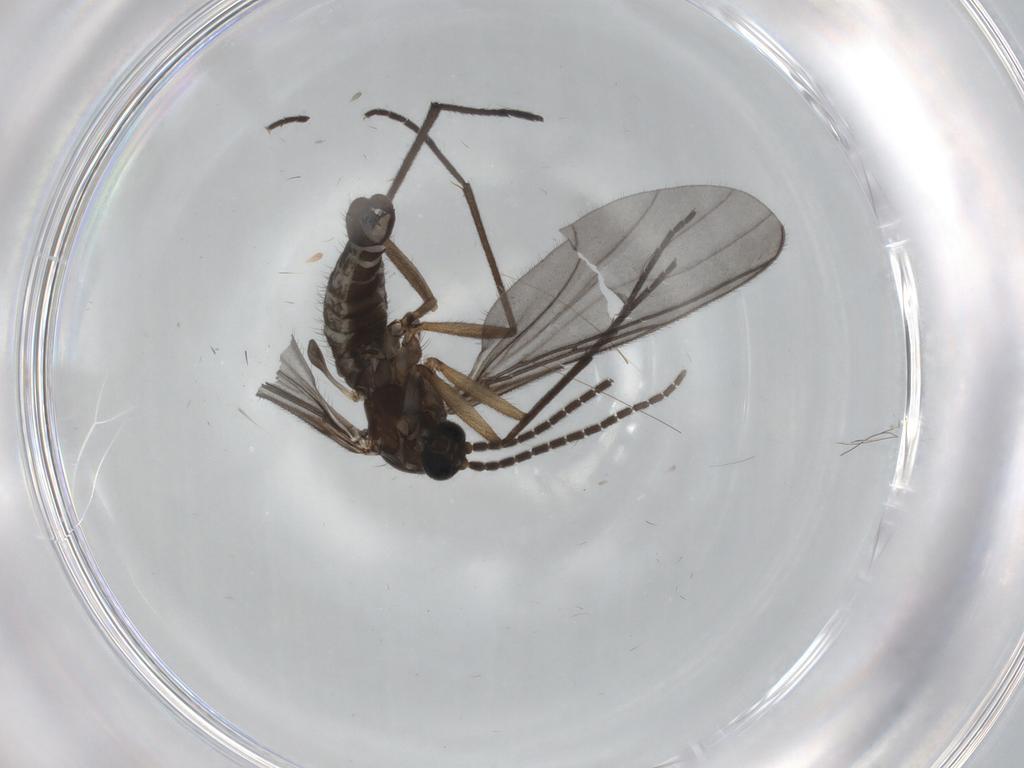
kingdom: Animalia
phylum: Arthropoda
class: Insecta
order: Diptera
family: Sciaridae
